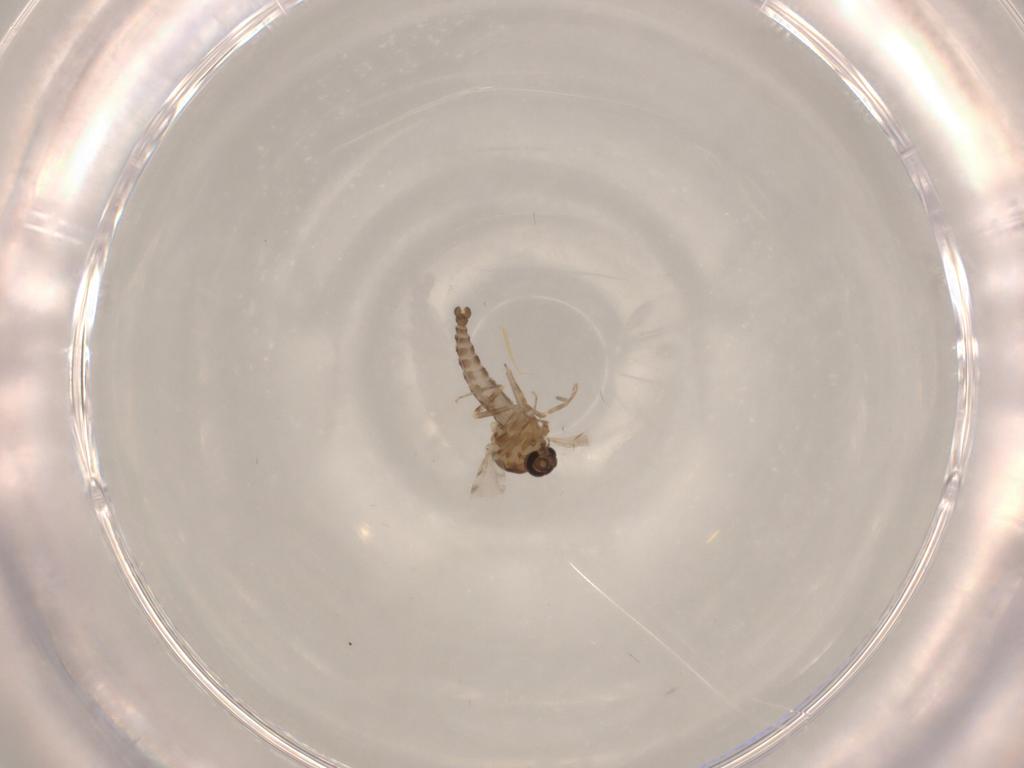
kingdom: Animalia
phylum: Arthropoda
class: Insecta
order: Diptera
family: Ceratopogonidae
